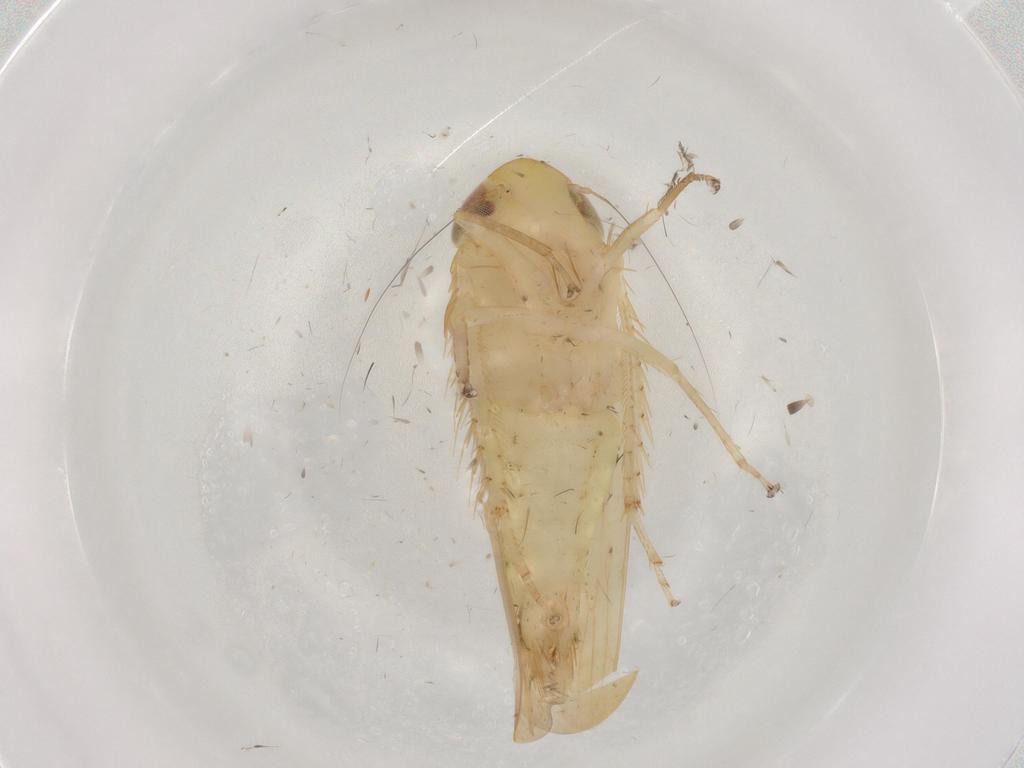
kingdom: Animalia
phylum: Arthropoda
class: Insecta
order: Hemiptera
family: Cicadellidae
